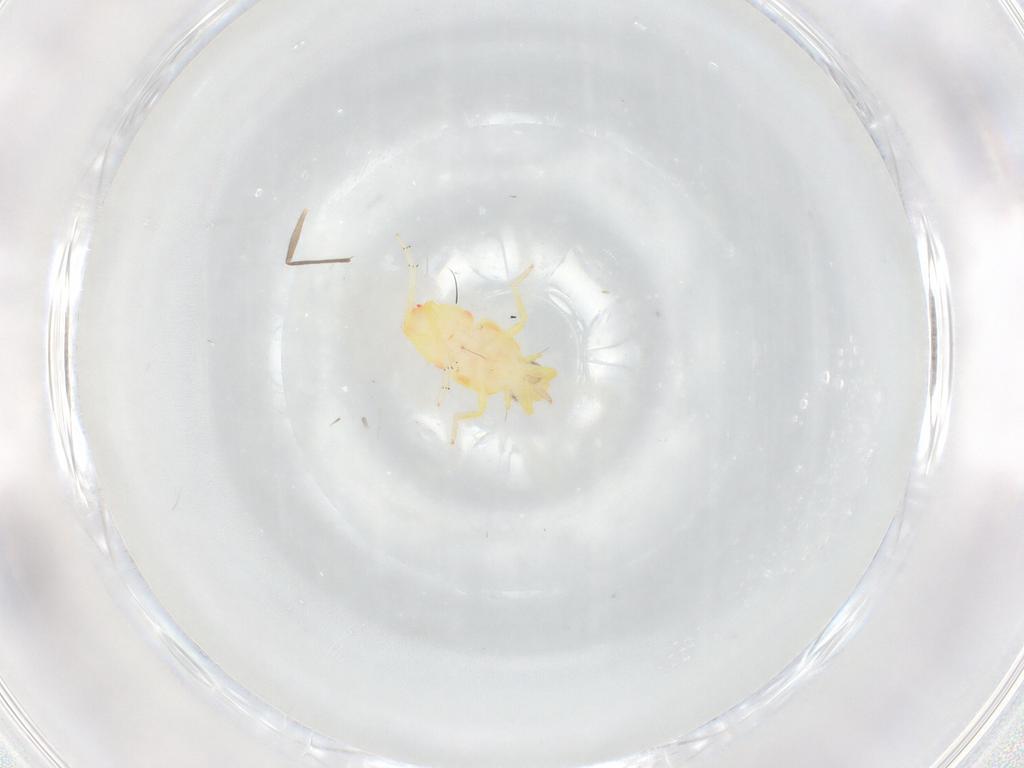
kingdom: Animalia
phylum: Arthropoda
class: Insecta
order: Hemiptera
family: Tropiduchidae
